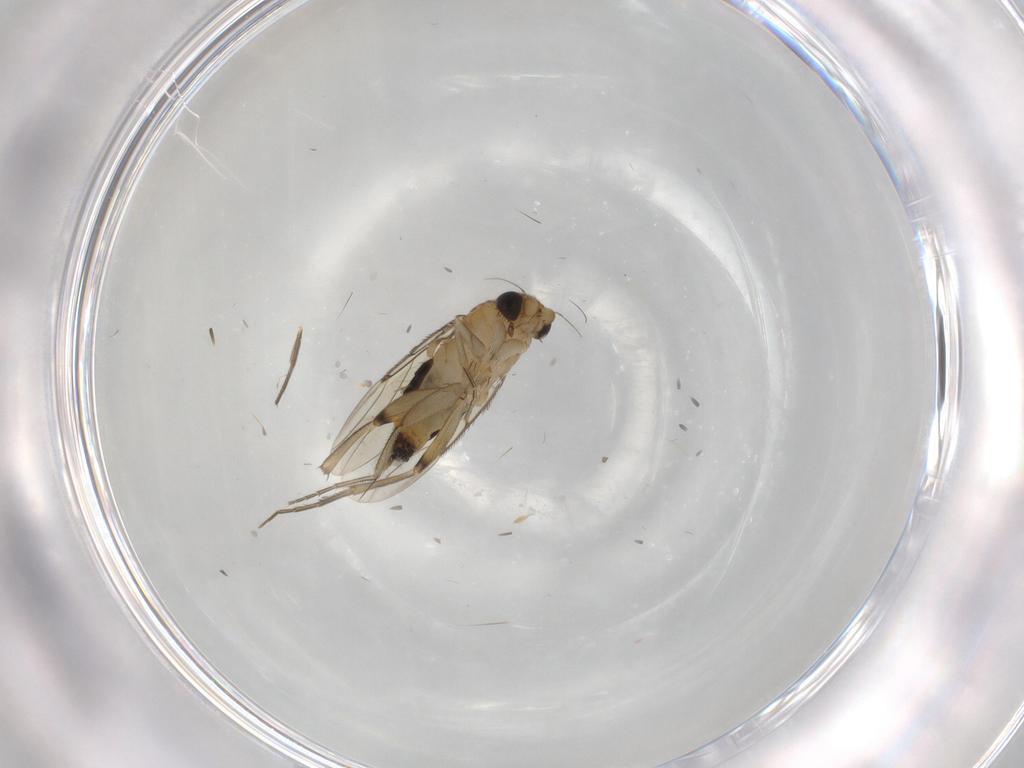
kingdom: Animalia
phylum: Arthropoda
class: Insecta
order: Diptera
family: Phoridae
